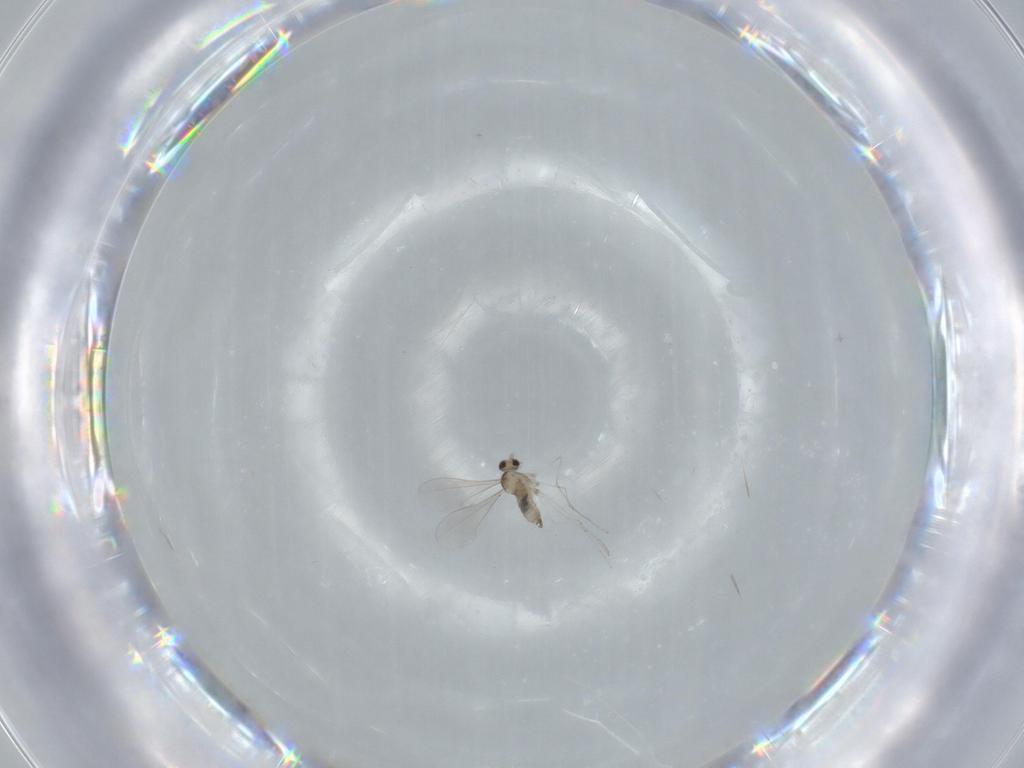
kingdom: Animalia
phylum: Arthropoda
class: Insecta
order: Diptera
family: Cecidomyiidae
